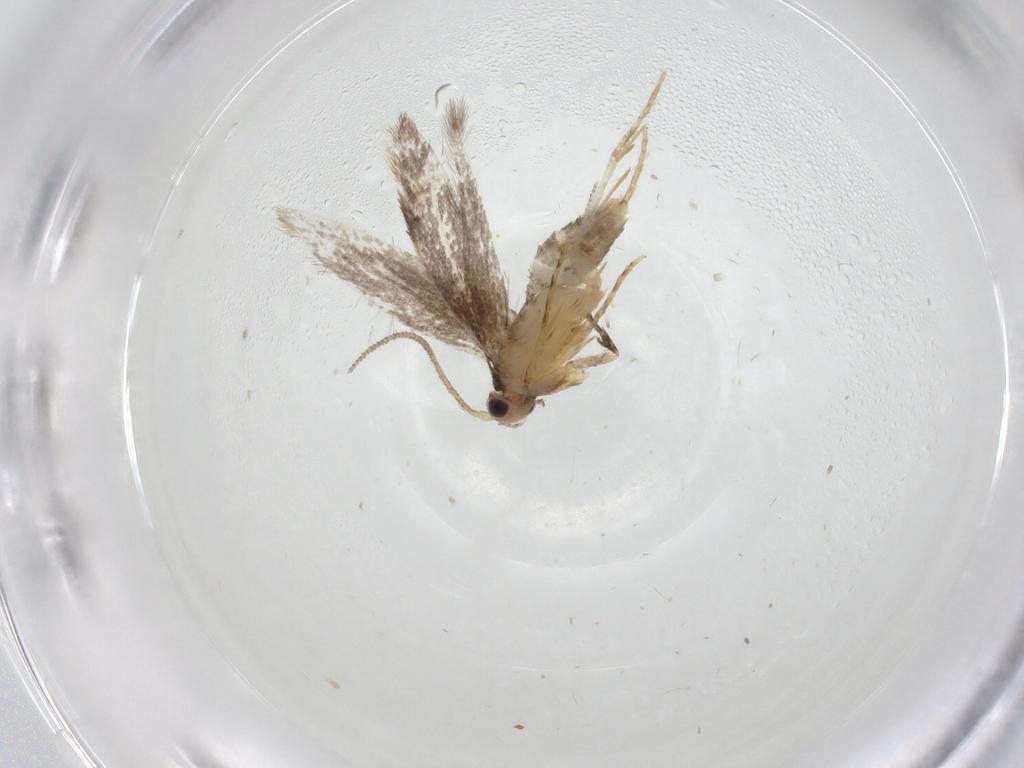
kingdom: Animalia
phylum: Arthropoda
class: Insecta
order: Lepidoptera
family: Tineidae
